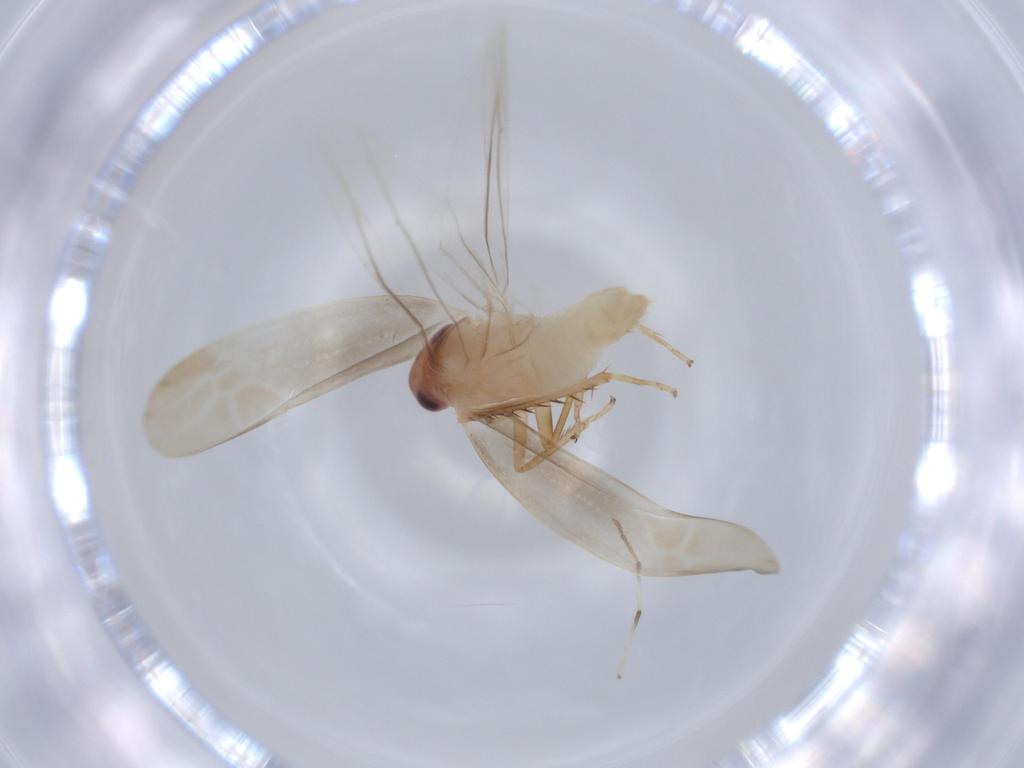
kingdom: Animalia
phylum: Arthropoda
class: Insecta
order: Hemiptera
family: Cicadellidae
